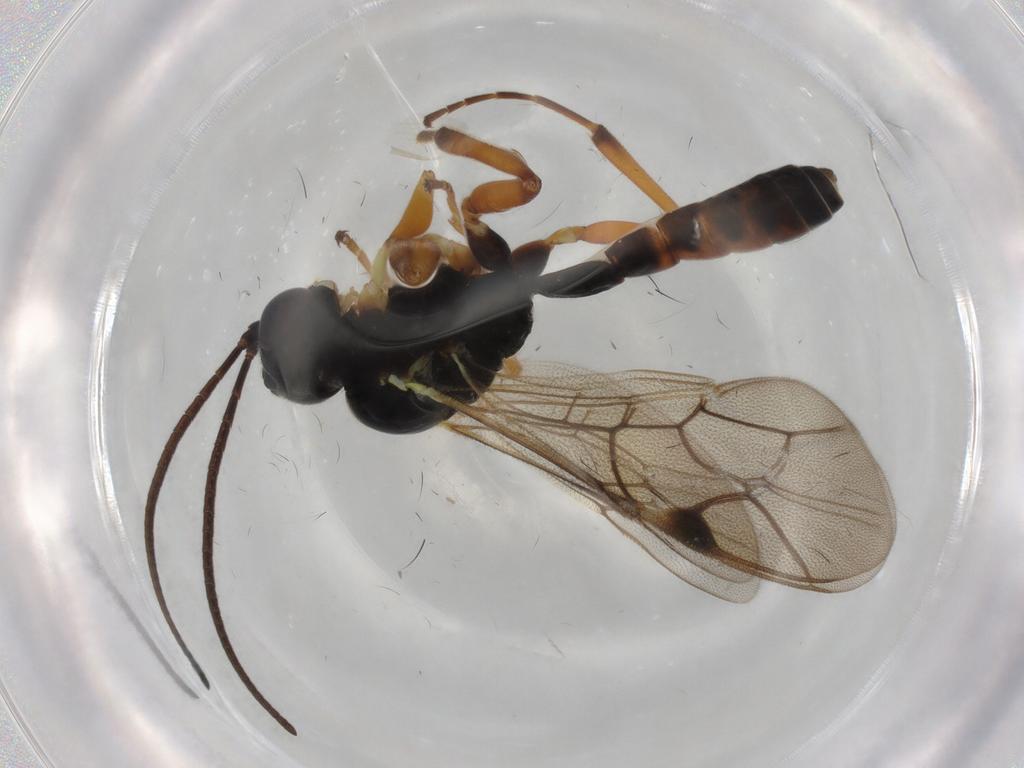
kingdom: Animalia
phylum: Arthropoda
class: Insecta
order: Hymenoptera
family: Ichneumonidae
